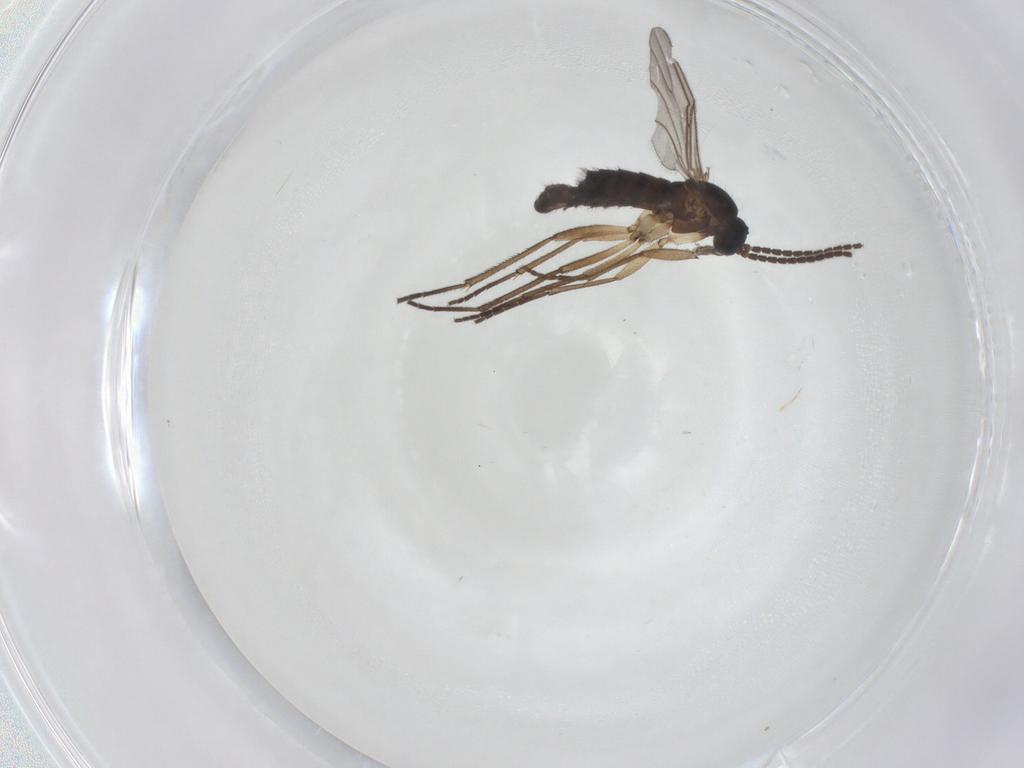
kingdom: Animalia
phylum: Arthropoda
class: Insecta
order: Diptera
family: Sciaridae
